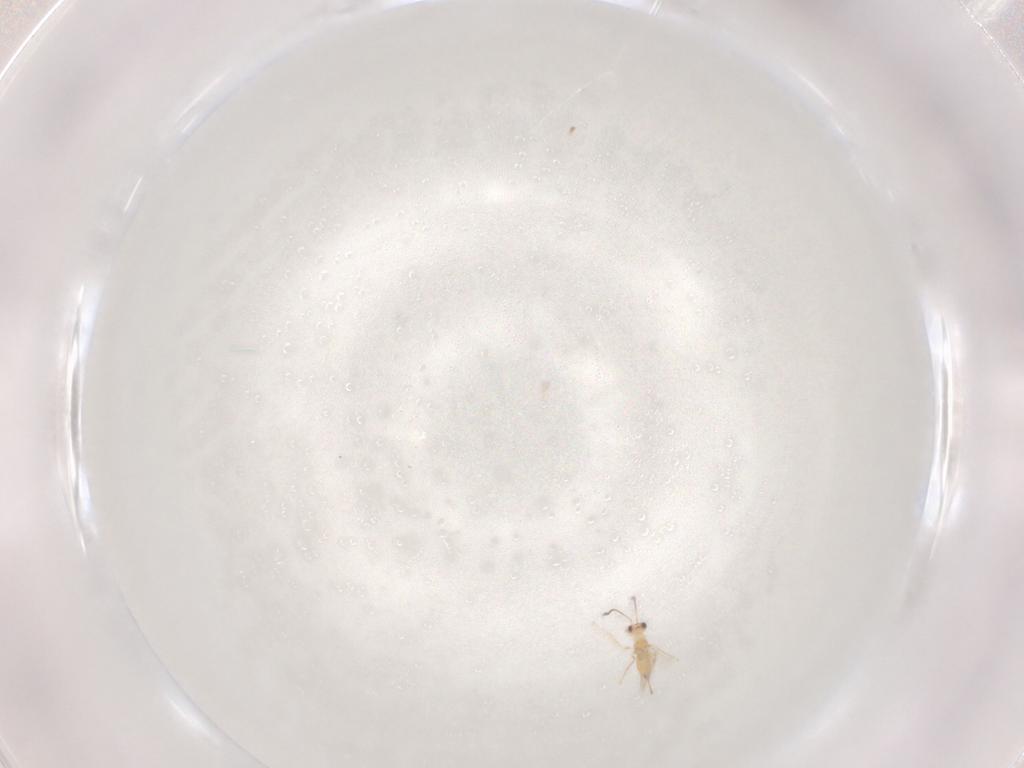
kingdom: Animalia
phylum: Arthropoda
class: Insecta
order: Hymenoptera
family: Mymaridae
